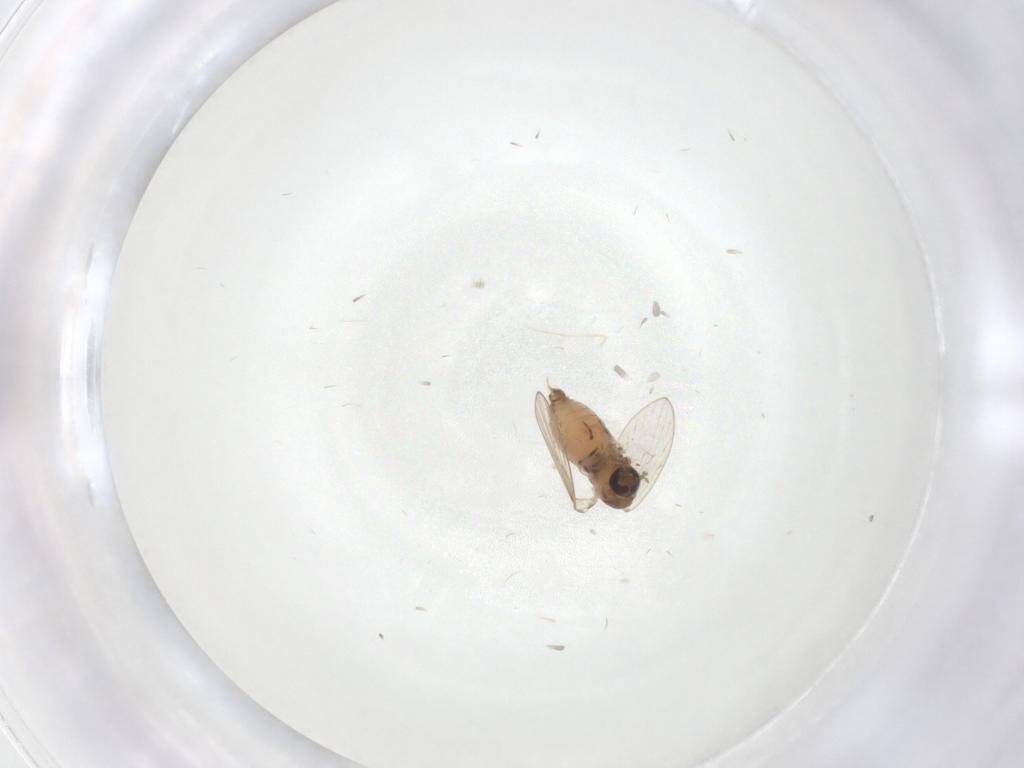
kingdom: Animalia
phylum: Arthropoda
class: Insecta
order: Diptera
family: Psychodidae
